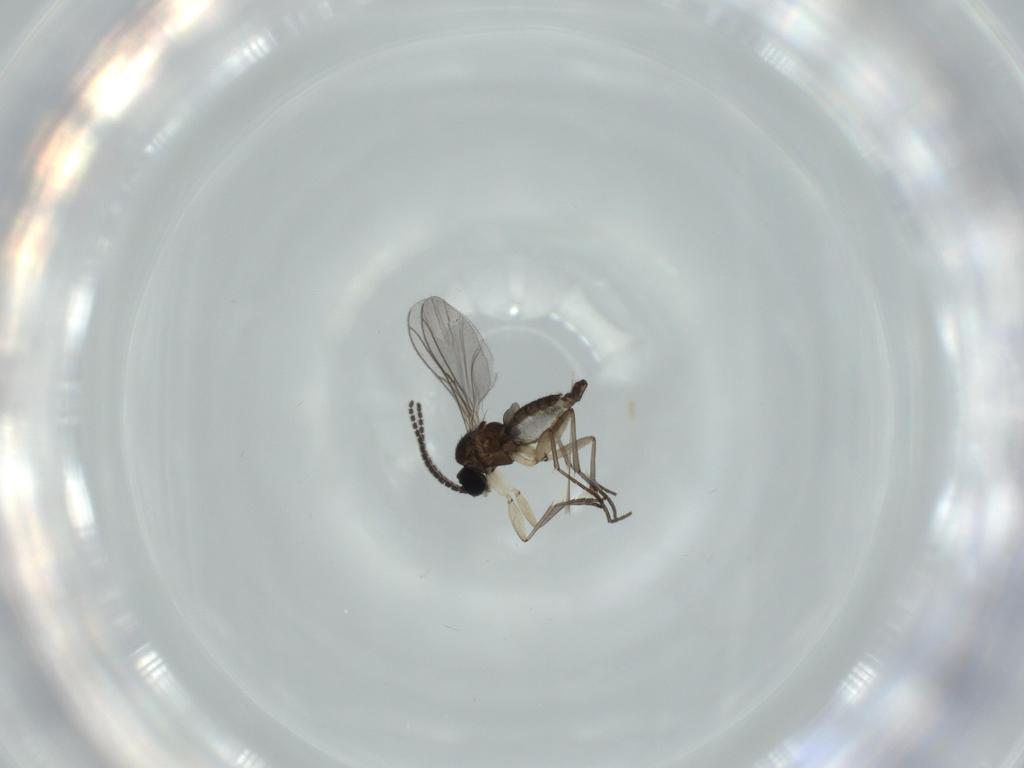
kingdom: Animalia
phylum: Arthropoda
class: Insecta
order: Diptera
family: Sciaridae
